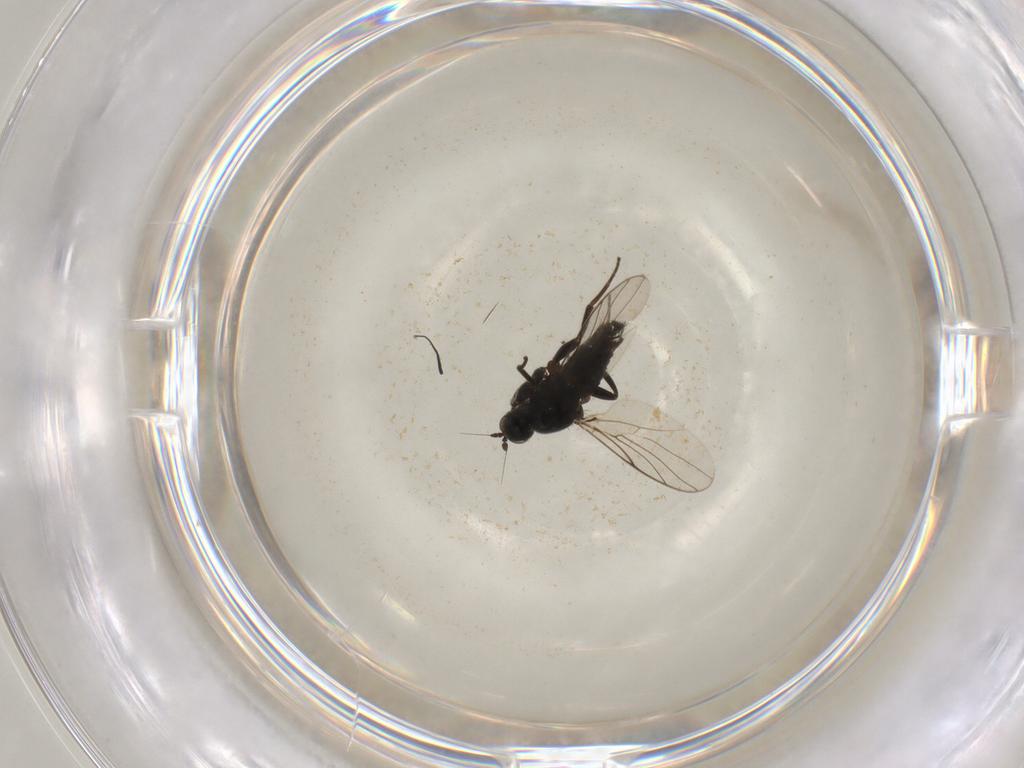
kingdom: Animalia
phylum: Arthropoda
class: Insecta
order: Diptera
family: Hybotidae
